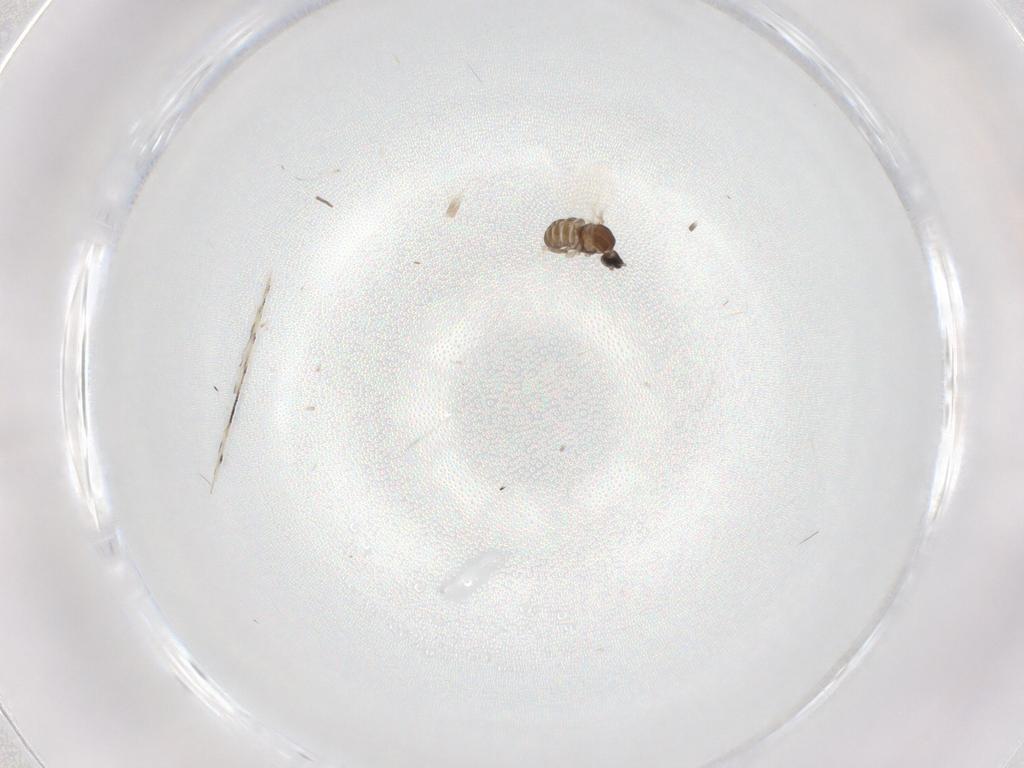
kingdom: Animalia
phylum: Arthropoda
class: Insecta
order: Diptera
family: Cecidomyiidae
